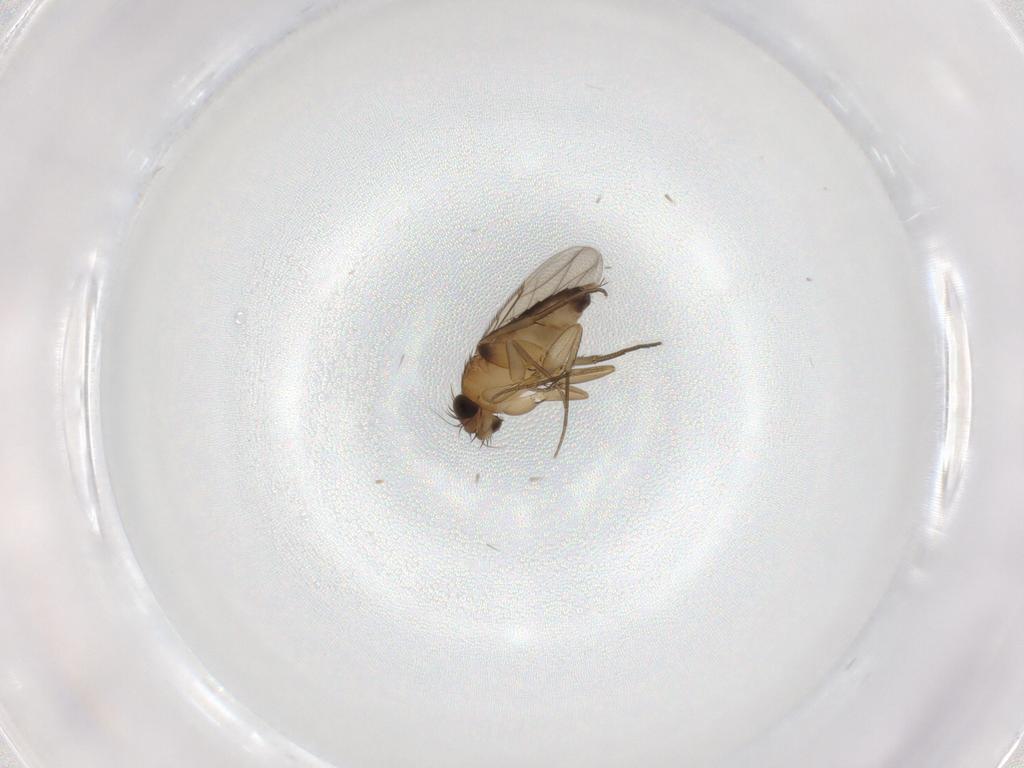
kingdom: Animalia
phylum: Arthropoda
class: Insecta
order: Diptera
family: Phoridae
